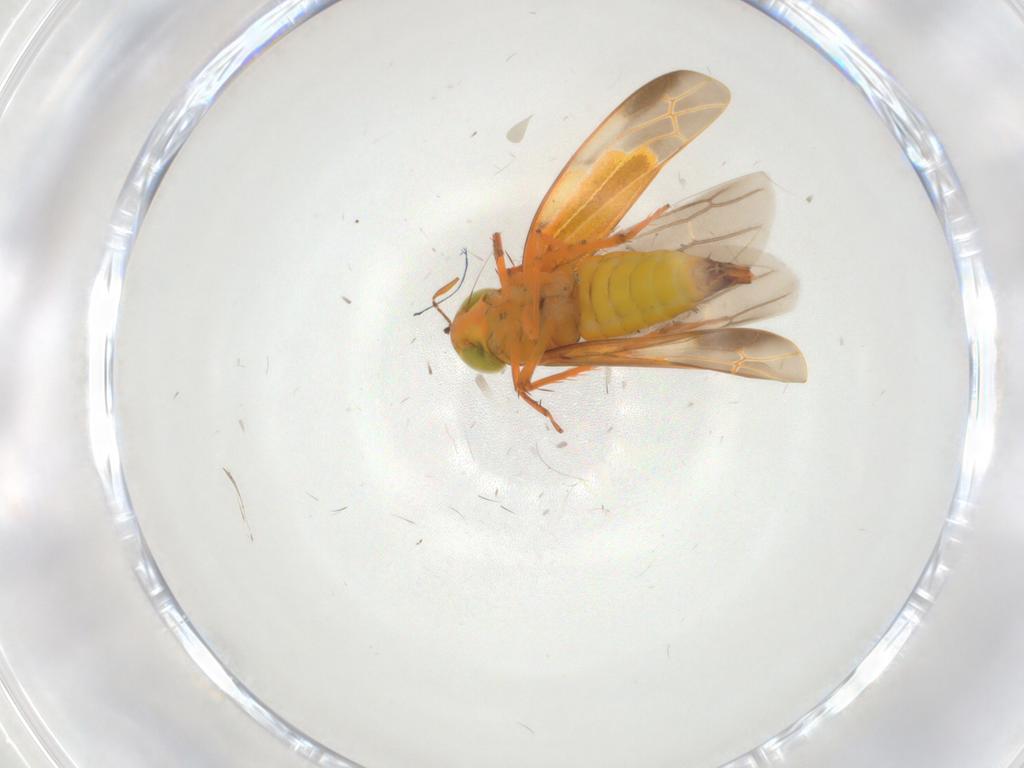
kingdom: Animalia
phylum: Arthropoda
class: Insecta
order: Hemiptera
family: Cicadellidae
